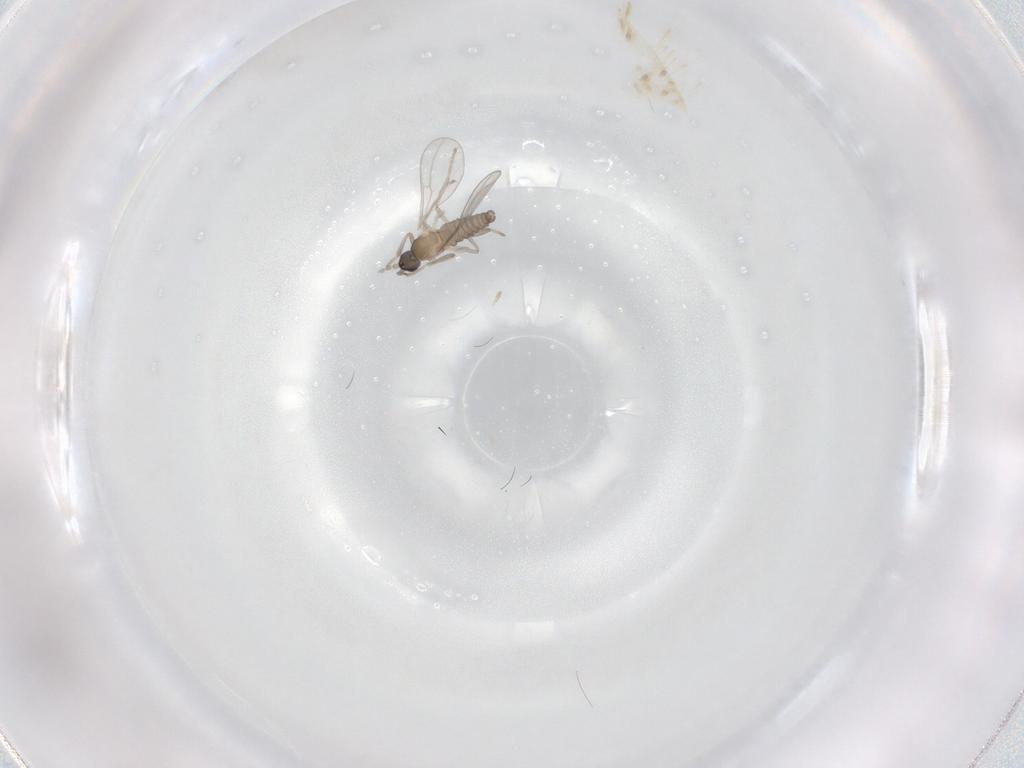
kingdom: Animalia
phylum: Arthropoda
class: Insecta
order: Diptera
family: Cecidomyiidae
